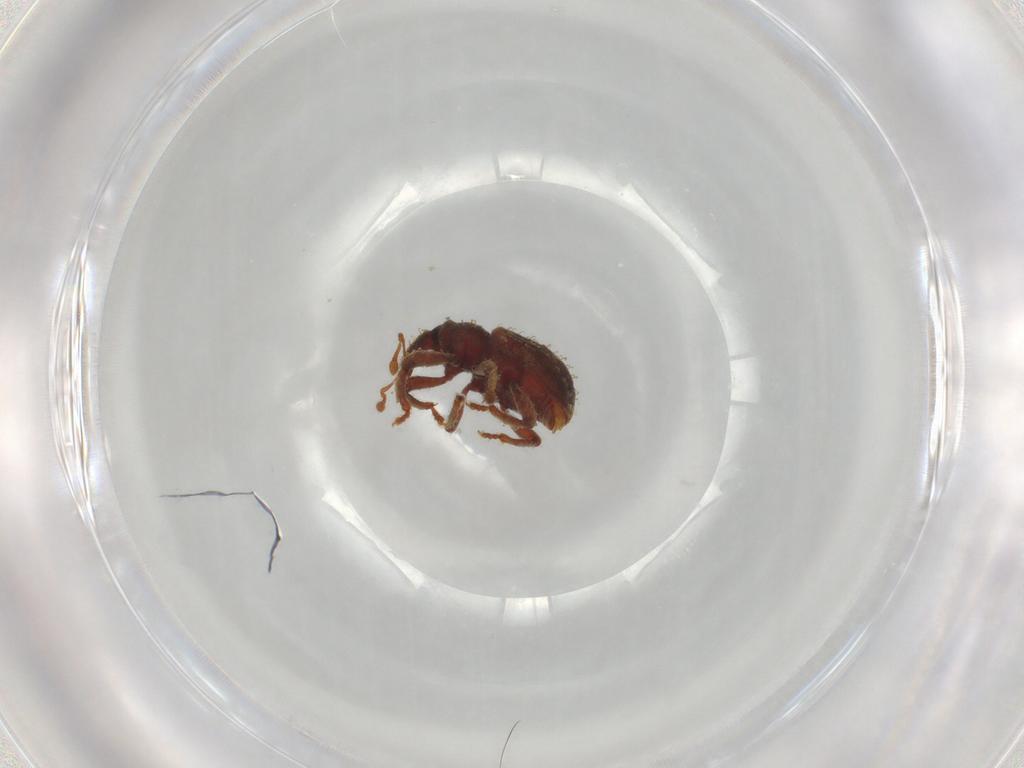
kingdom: Animalia
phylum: Arthropoda
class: Insecta
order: Coleoptera
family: Curculionidae
